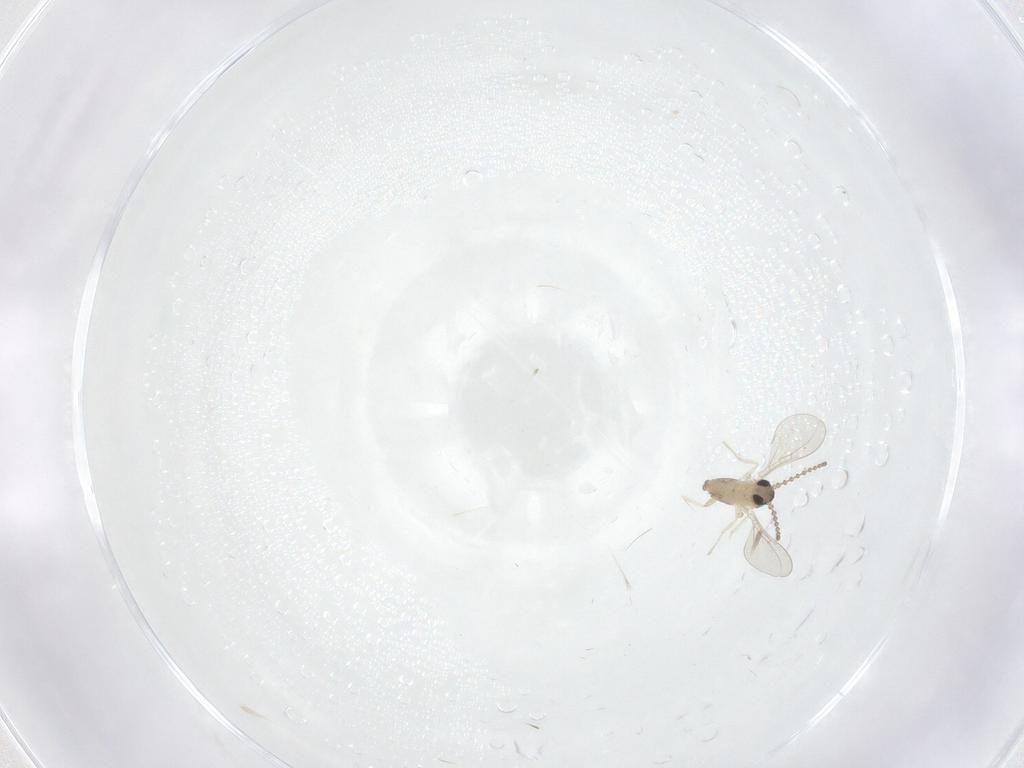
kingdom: Animalia
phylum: Arthropoda
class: Insecta
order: Diptera
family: Cecidomyiidae
